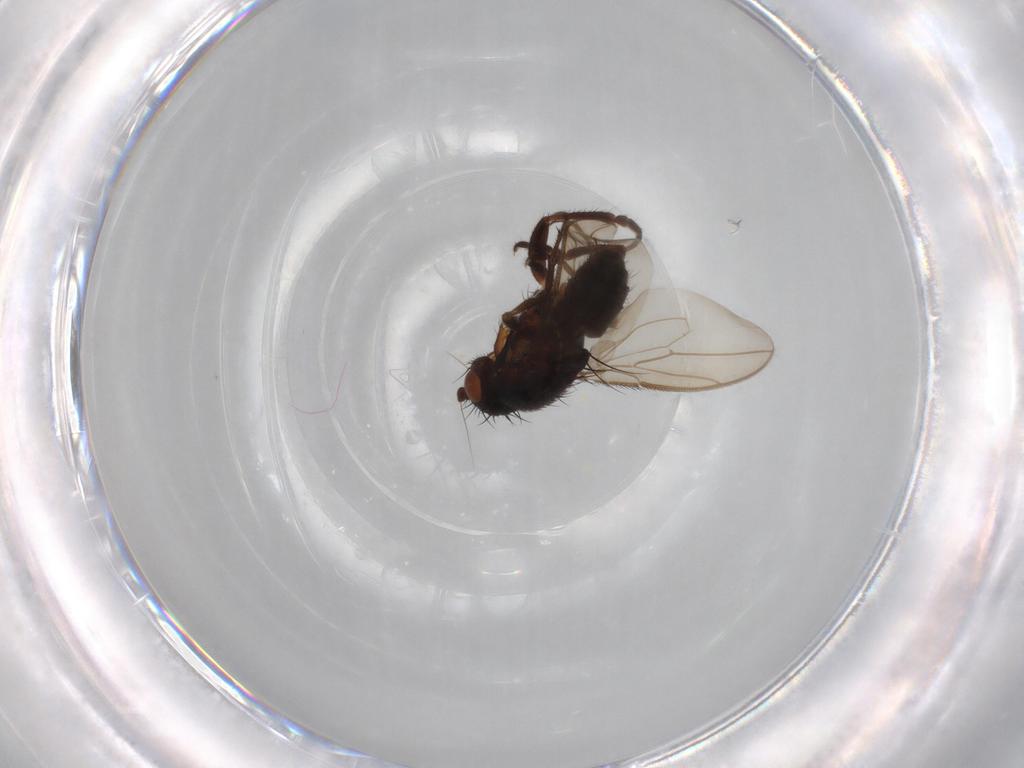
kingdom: Animalia
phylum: Arthropoda
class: Insecta
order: Diptera
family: Sphaeroceridae
